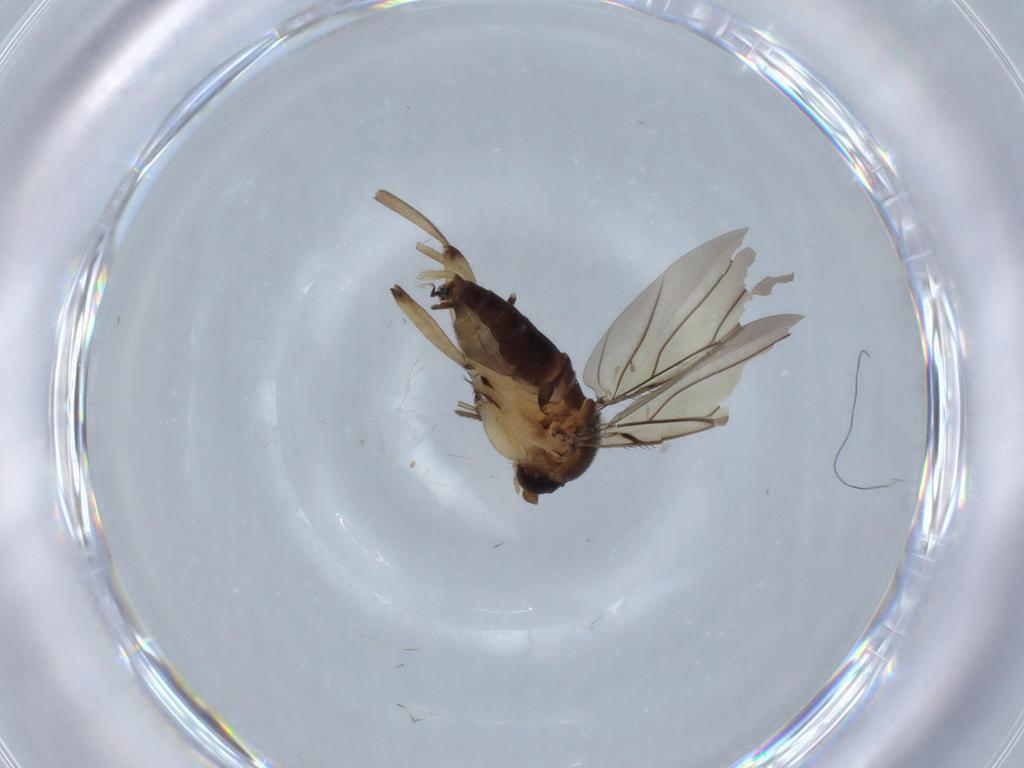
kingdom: Animalia
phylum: Arthropoda
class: Insecta
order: Diptera
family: Micropezidae
